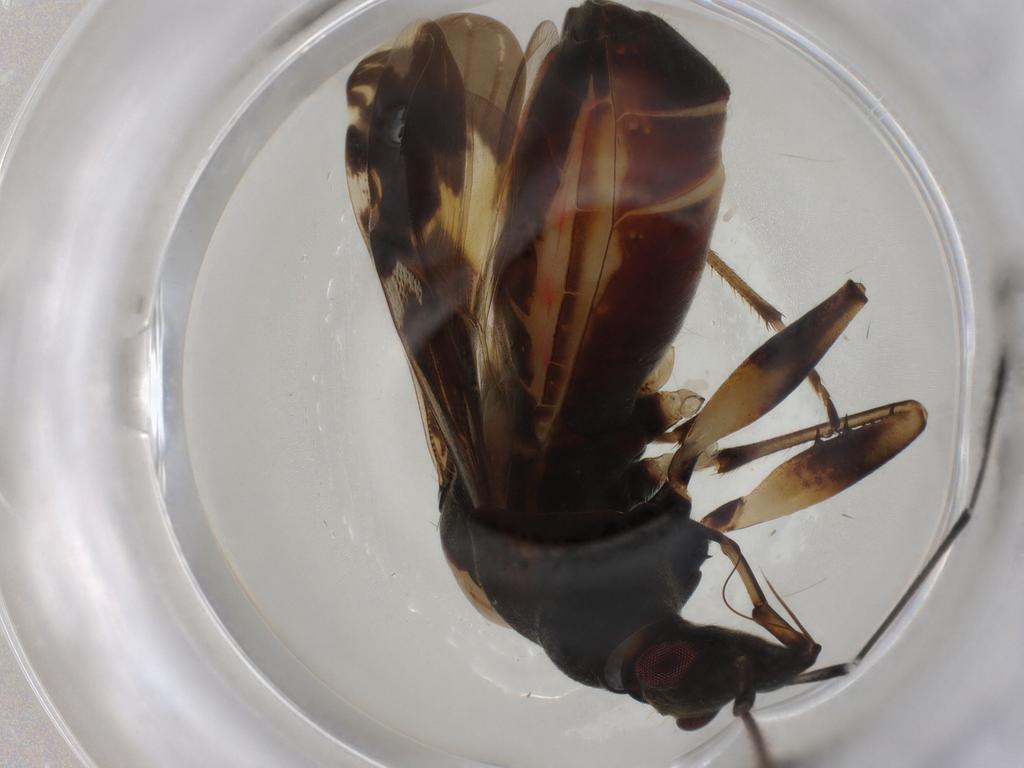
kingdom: Animalia
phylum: Arthropoda
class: Insecta
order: Hemiptera
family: Rhyparochromidae
